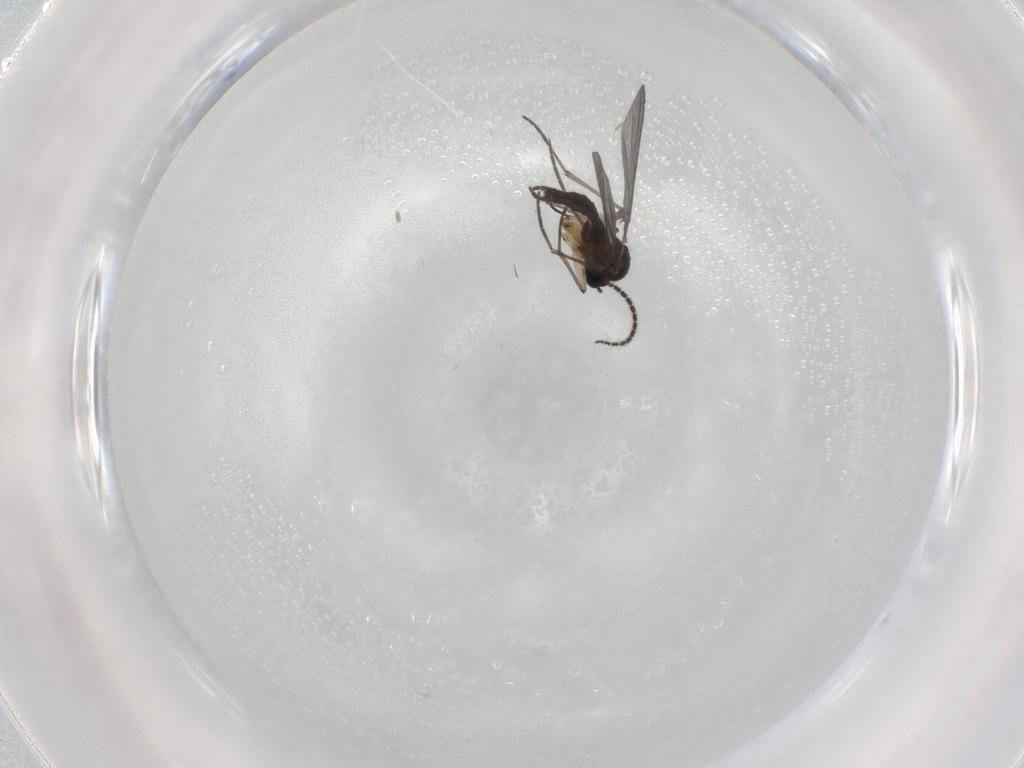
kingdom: Animalia
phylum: Arthropoda
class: Insecta
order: Diptera
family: Sciaridae
